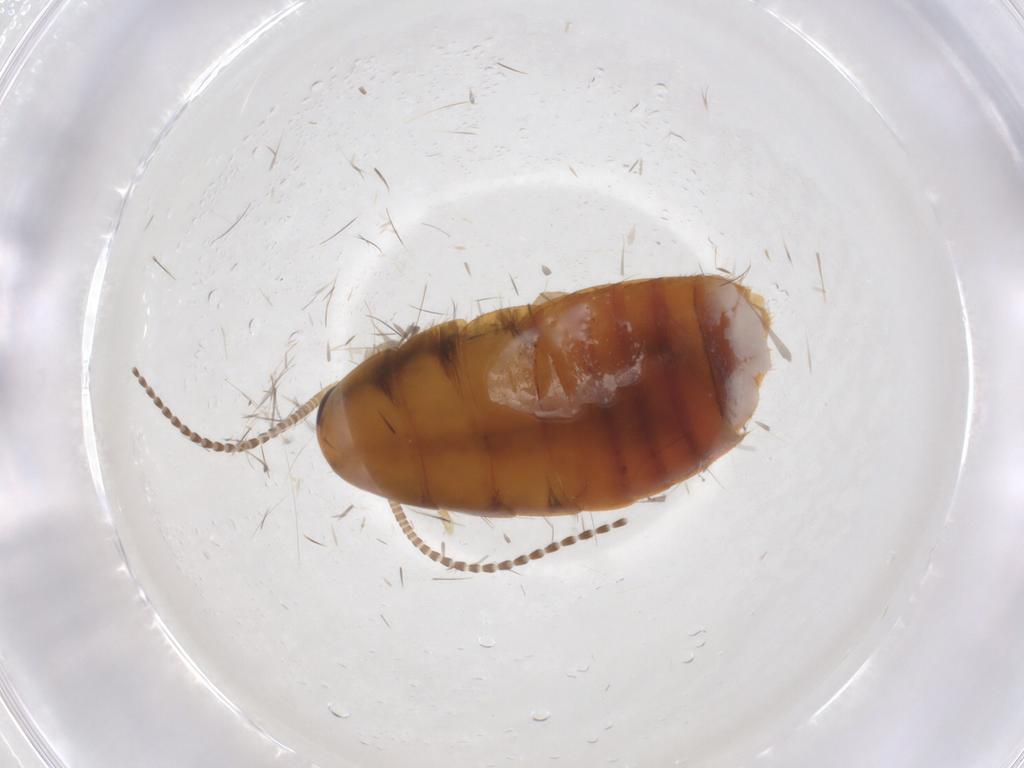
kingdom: Animalia
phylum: Arthropoda
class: Insecta
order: Blattodea
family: Blaberidae
